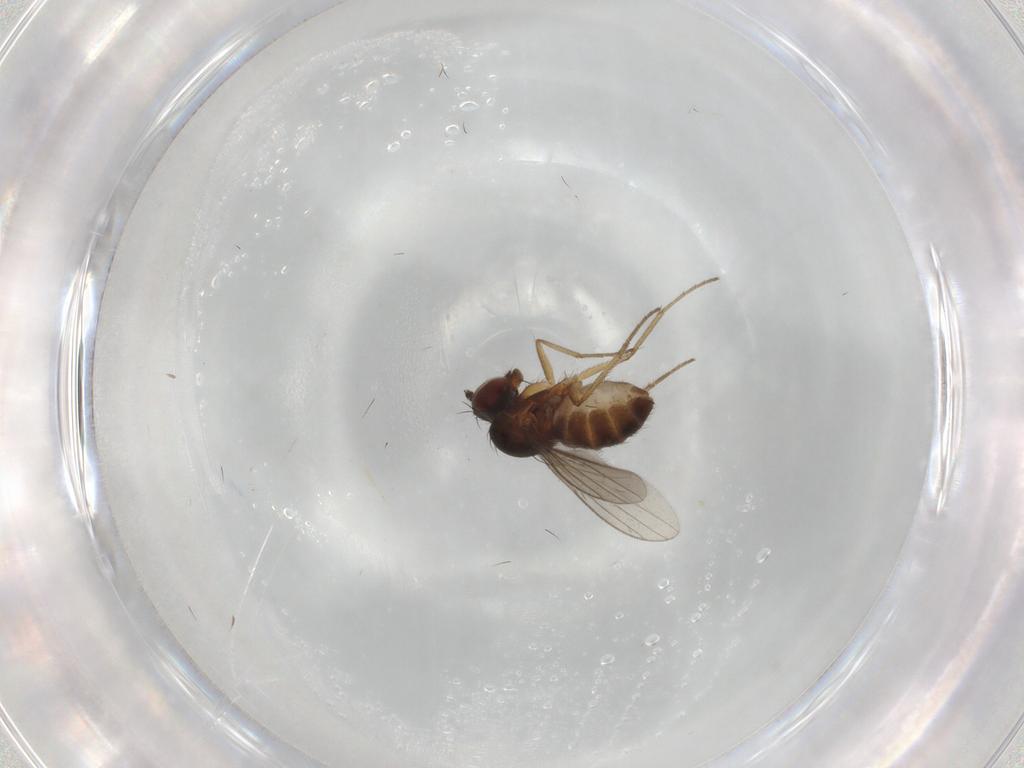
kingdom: Animalia
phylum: Arthropoda
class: Insecta
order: Diptera
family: Dolichopodidae
